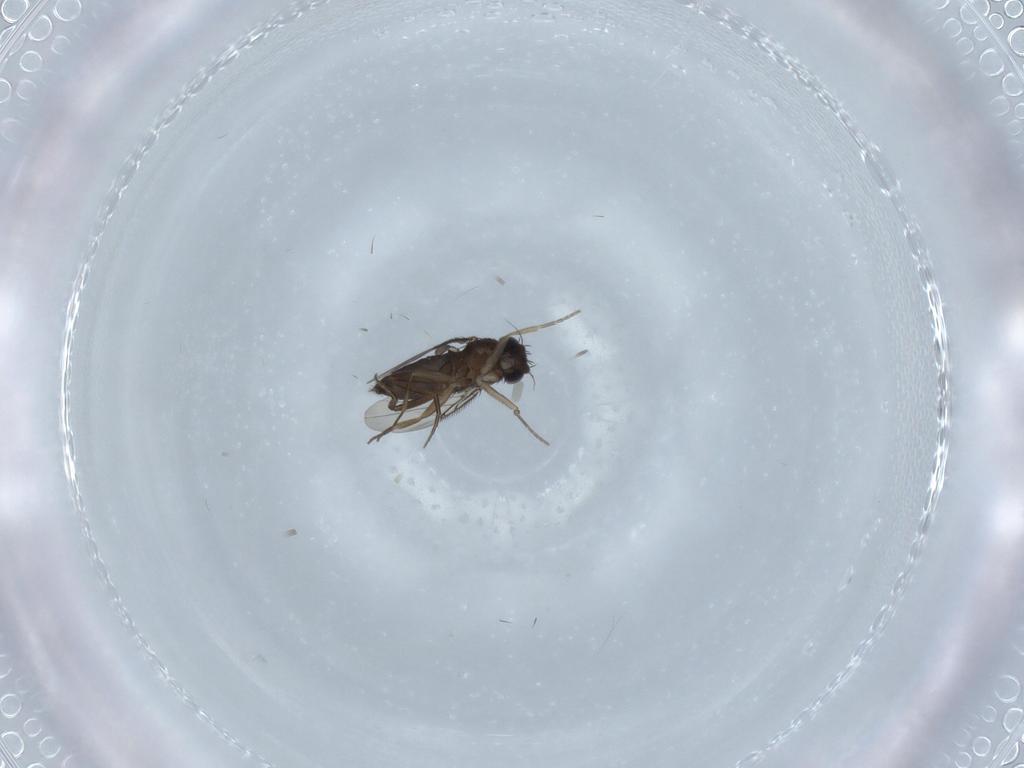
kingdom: Animalia
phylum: Arthropoda
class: Insecta
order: Diptera
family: Phoridae
